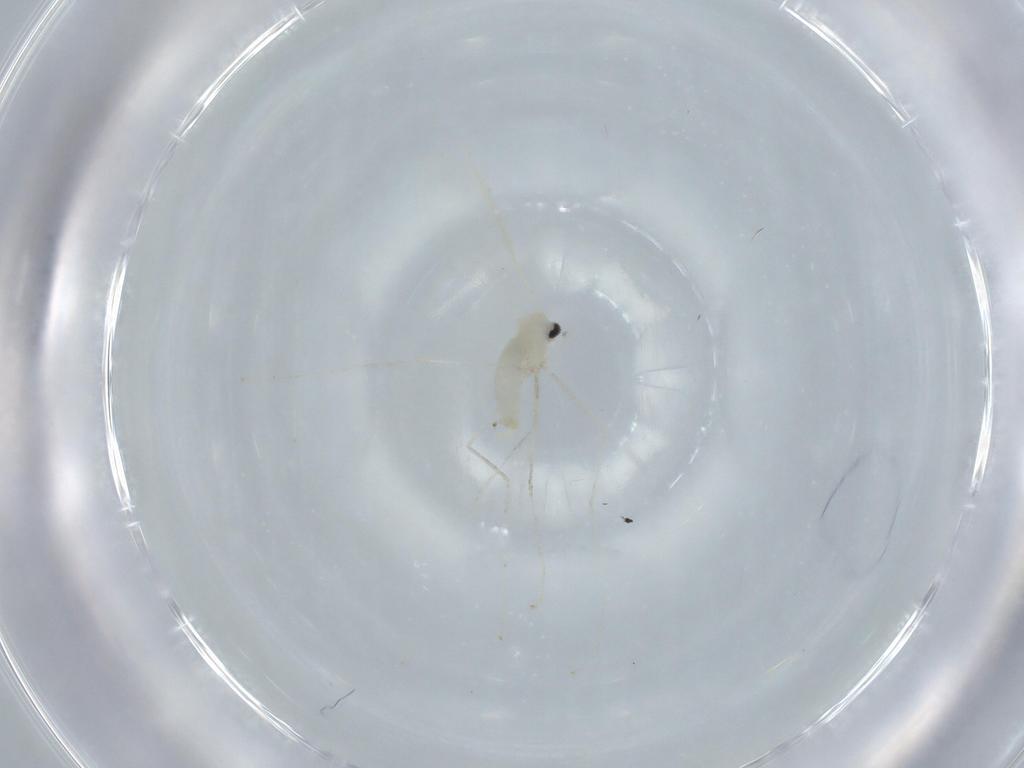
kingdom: Animalia
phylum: Arthropoda
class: Insecta
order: Diptera
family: Cecidomyiidae
